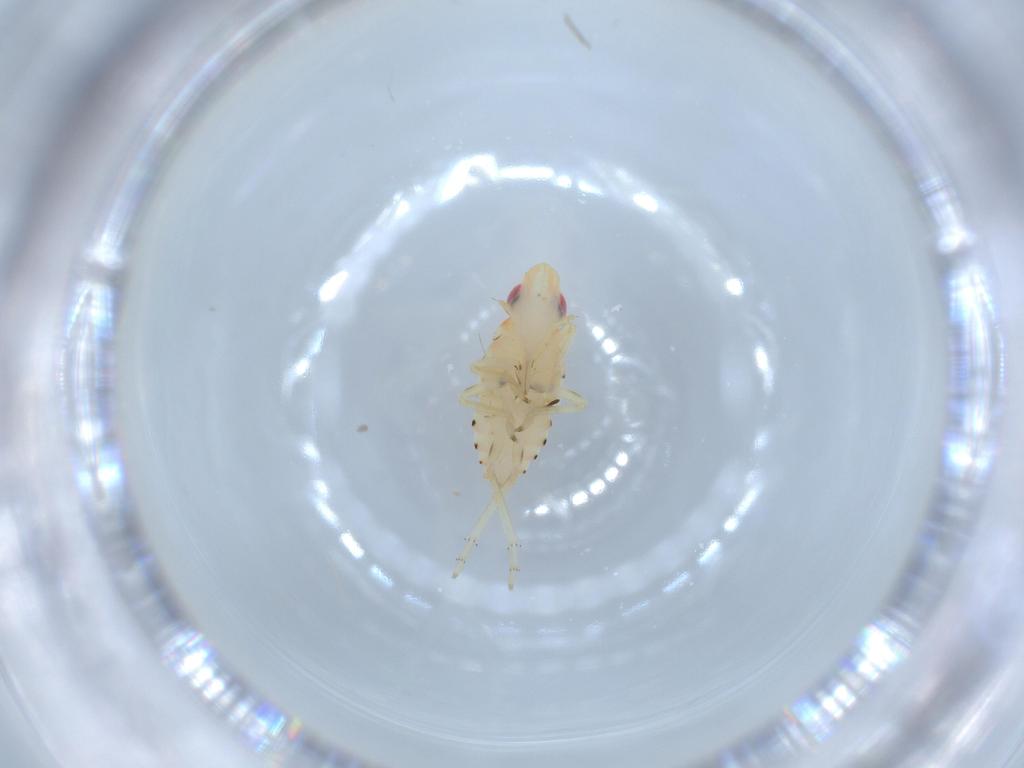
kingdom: Animalia
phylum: Arthropoda
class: Insecta
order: Hemiptera
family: Tropiduchidae
